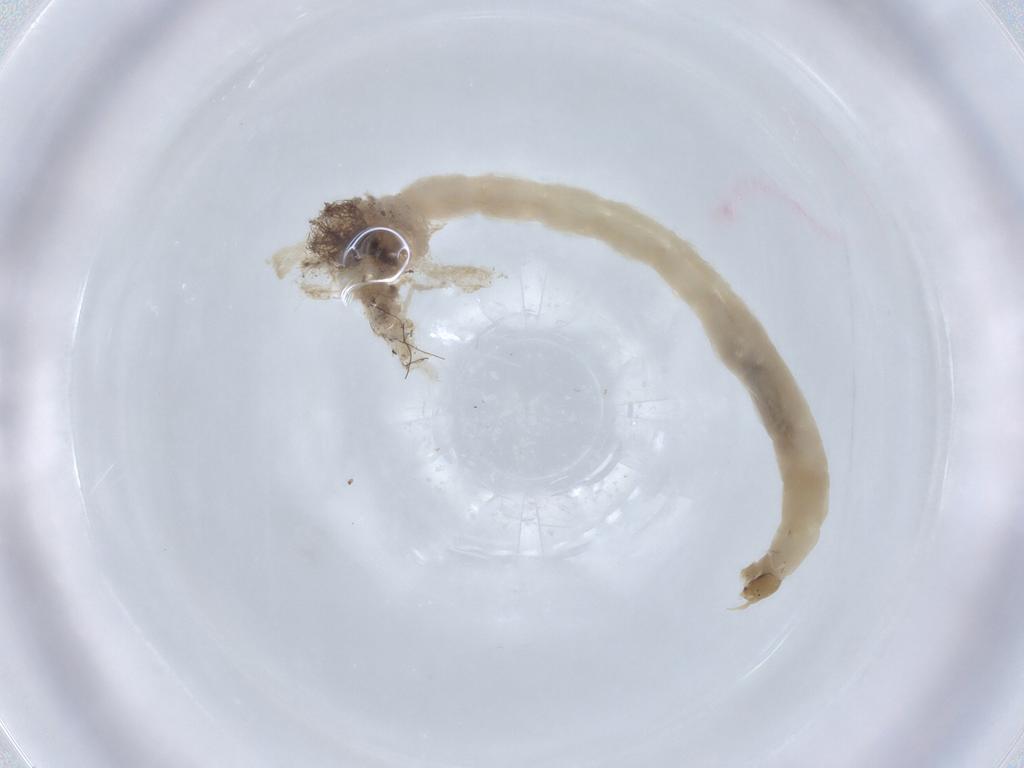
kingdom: Animalia
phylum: Arthropoda
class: Insecta
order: Diptera
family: Chironomidae
